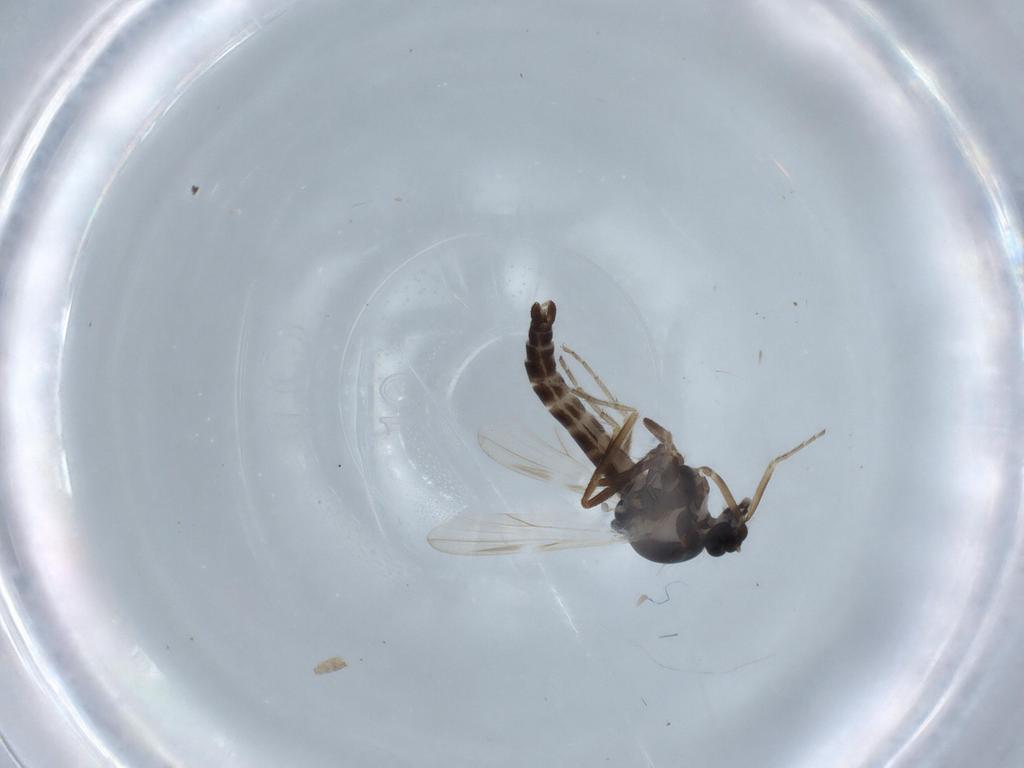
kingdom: Animalia
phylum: Arthropoda
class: Insecta
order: Diptera
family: Ceratopogonidae
